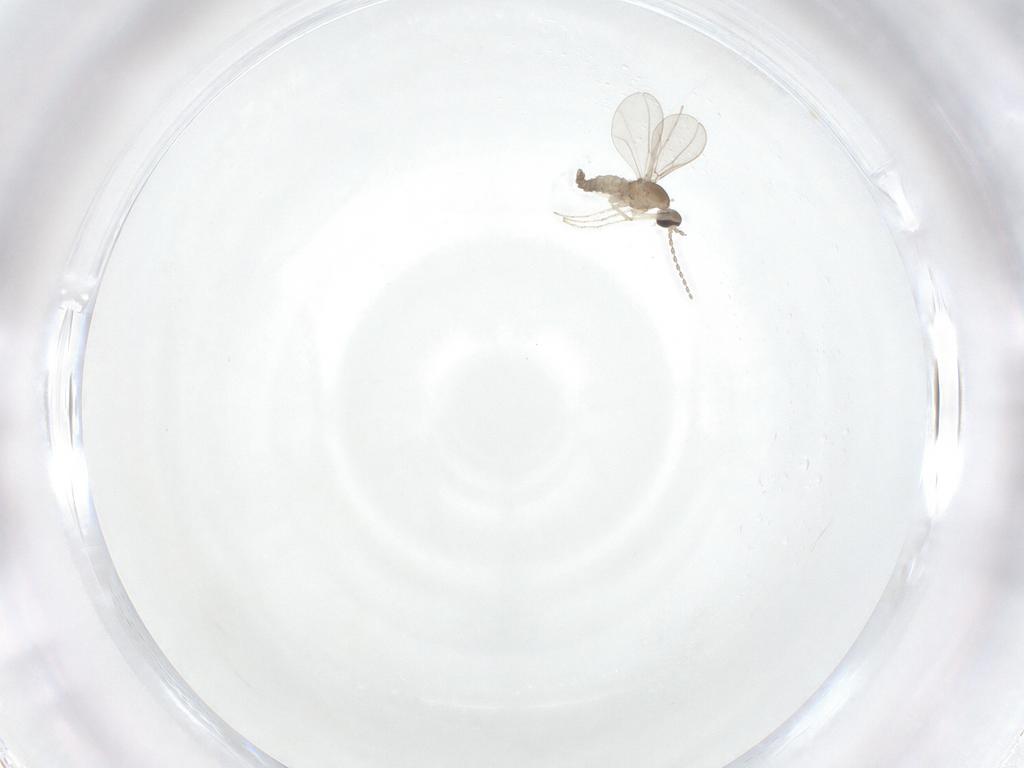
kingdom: Animalia
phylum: Arthropoda
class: Insecta
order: Diptera
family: Cecidomyiidae
